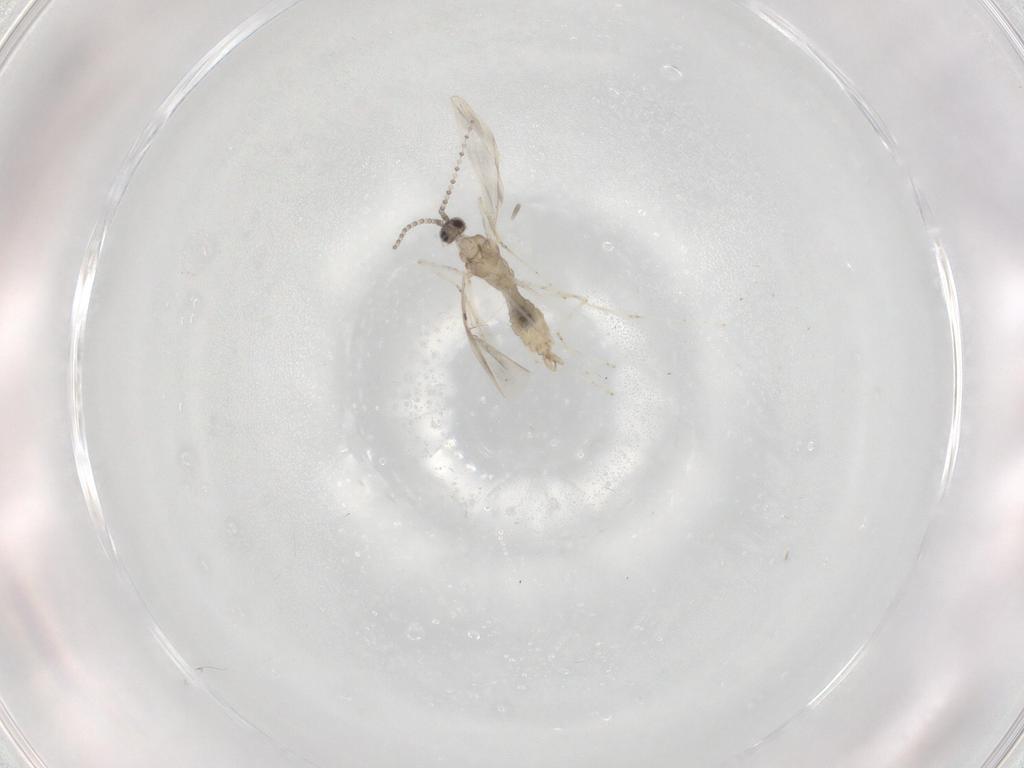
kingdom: Animalia
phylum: Arthropoda
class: Insecta
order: Diptera
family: Cecidomyiidae
